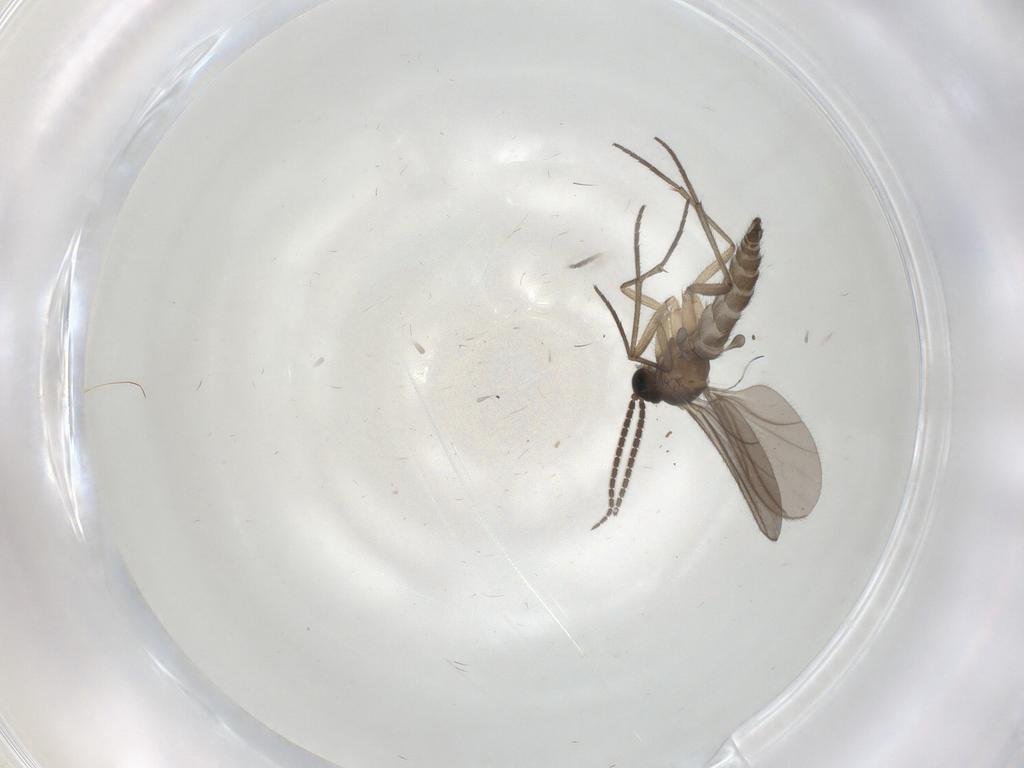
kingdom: Animalia
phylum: Arthropoda
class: Insecta
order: Diptera
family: Sciaridae
